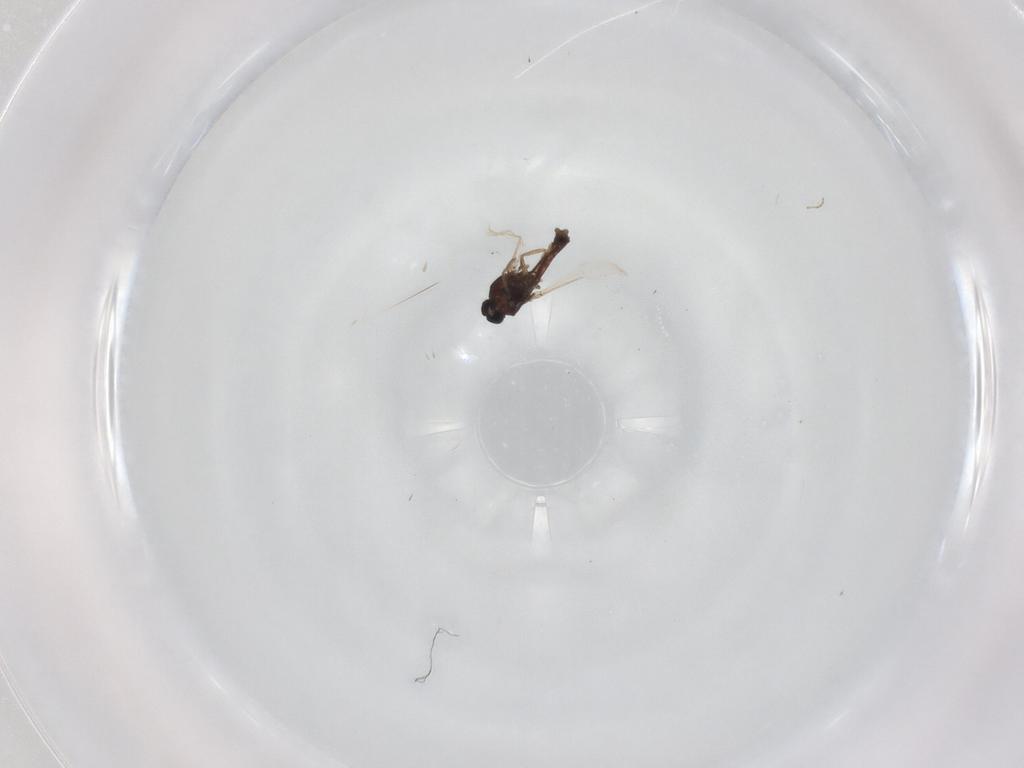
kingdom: Animalia
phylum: Arthropoda
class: Insecta
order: Diptera
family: Ceratopogonidae
